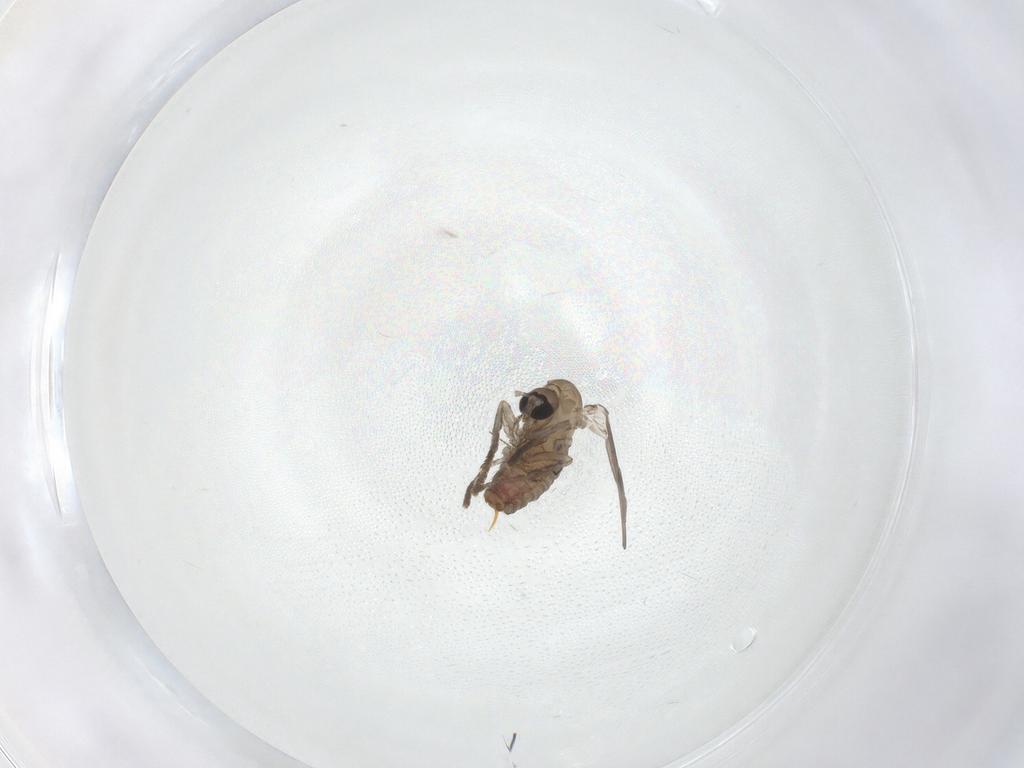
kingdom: Animalia
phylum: Arthropoda
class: Insecta
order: Diptera
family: Psychodidae
